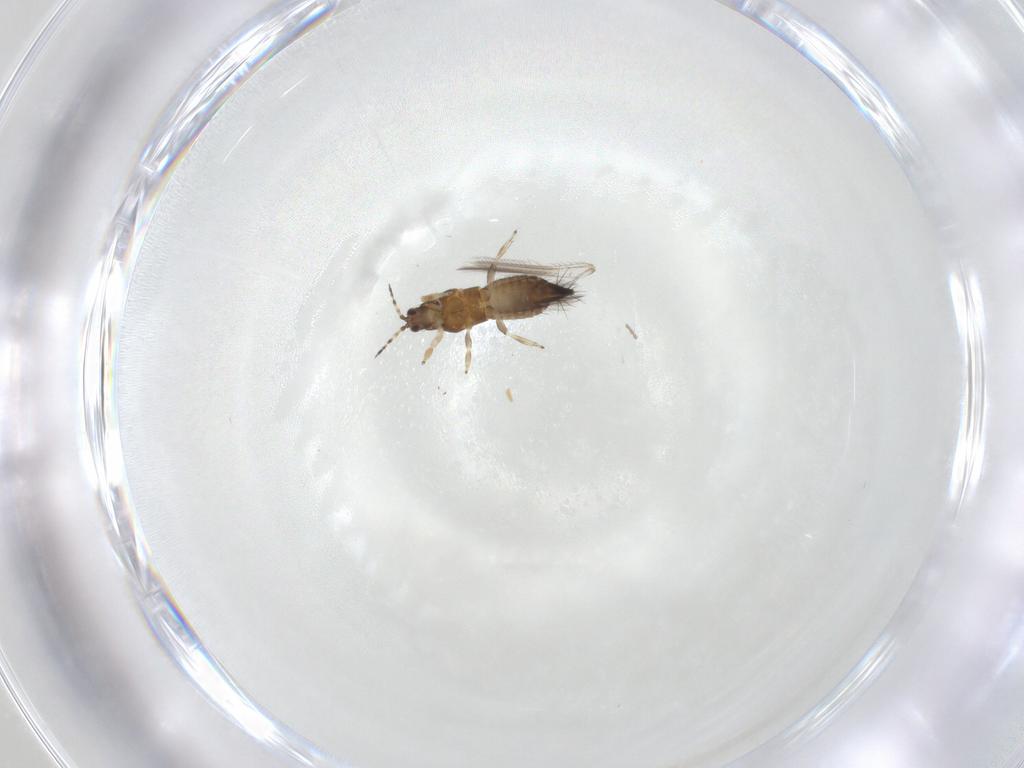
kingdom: Animalia
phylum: Arthropoda
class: Insecta
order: Thysanoptera
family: Thripidae
